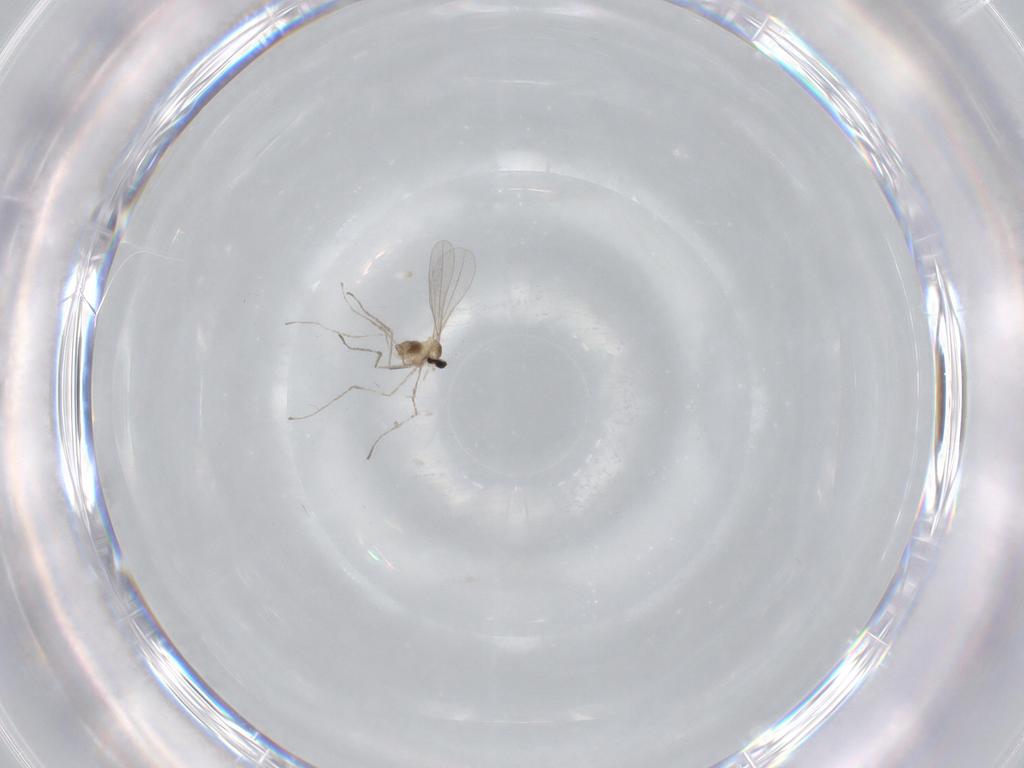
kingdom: Animalia
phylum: Arthropoda
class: Insecta
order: Diptera
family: Cecidomyiidae
